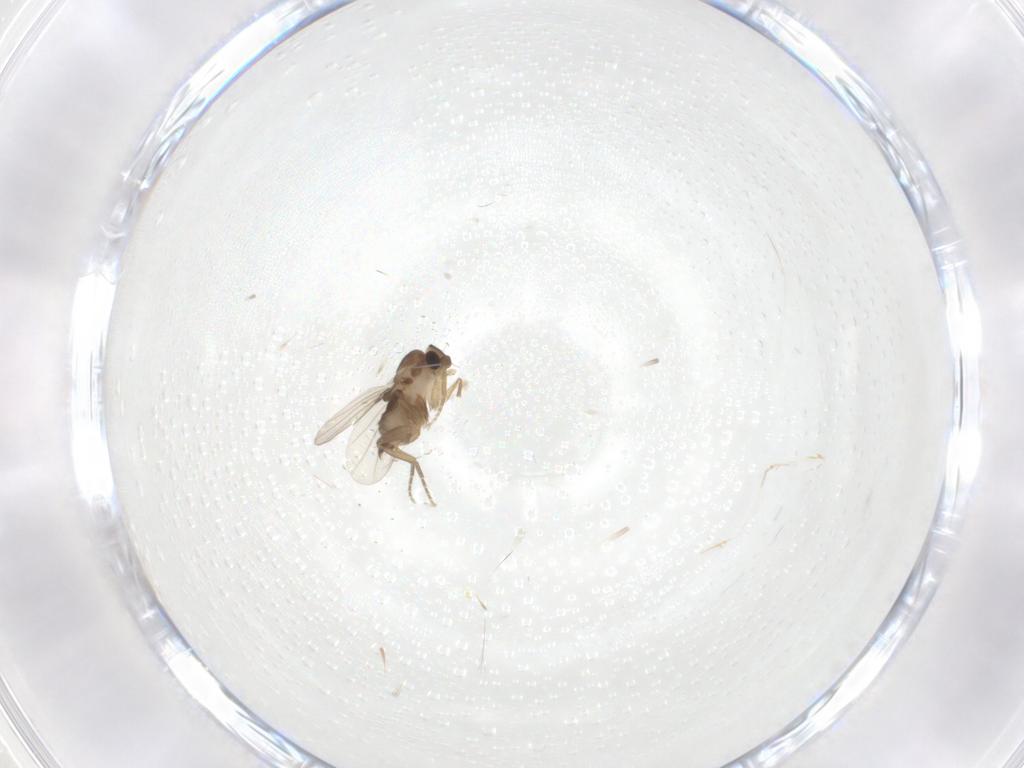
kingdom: Animalia
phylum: Arthropoda
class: Insecta
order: Diptera
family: Phoridae
